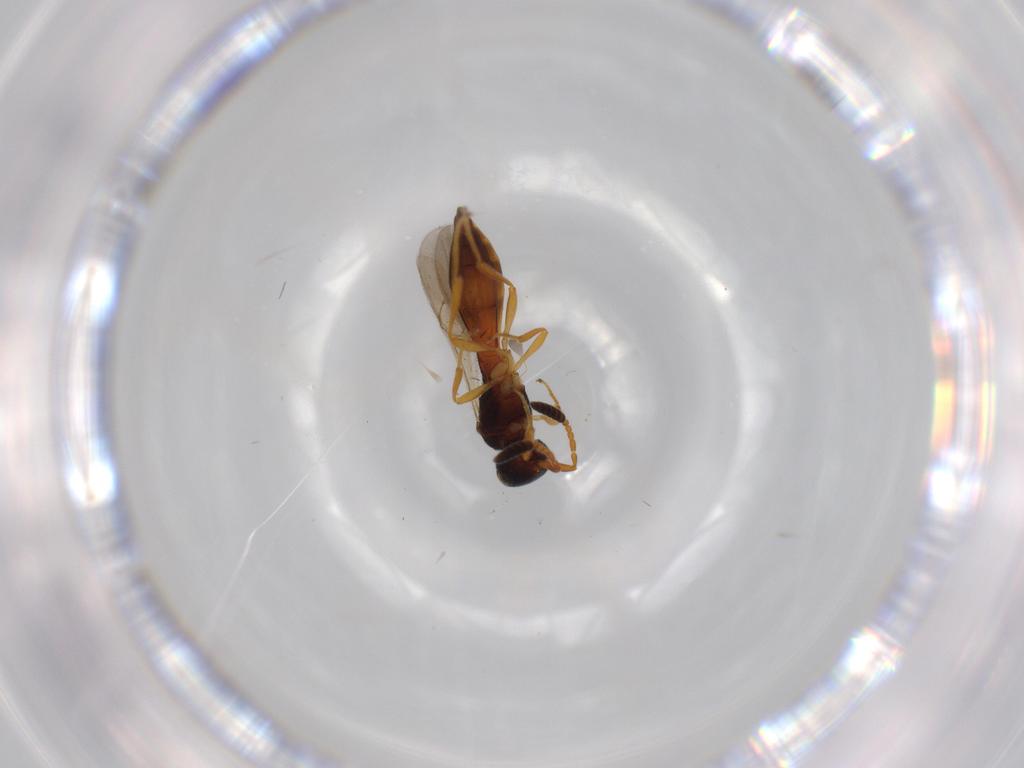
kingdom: Animalia
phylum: Arthropoda
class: Insecta
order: Hymenoptera
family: Scelionidae
